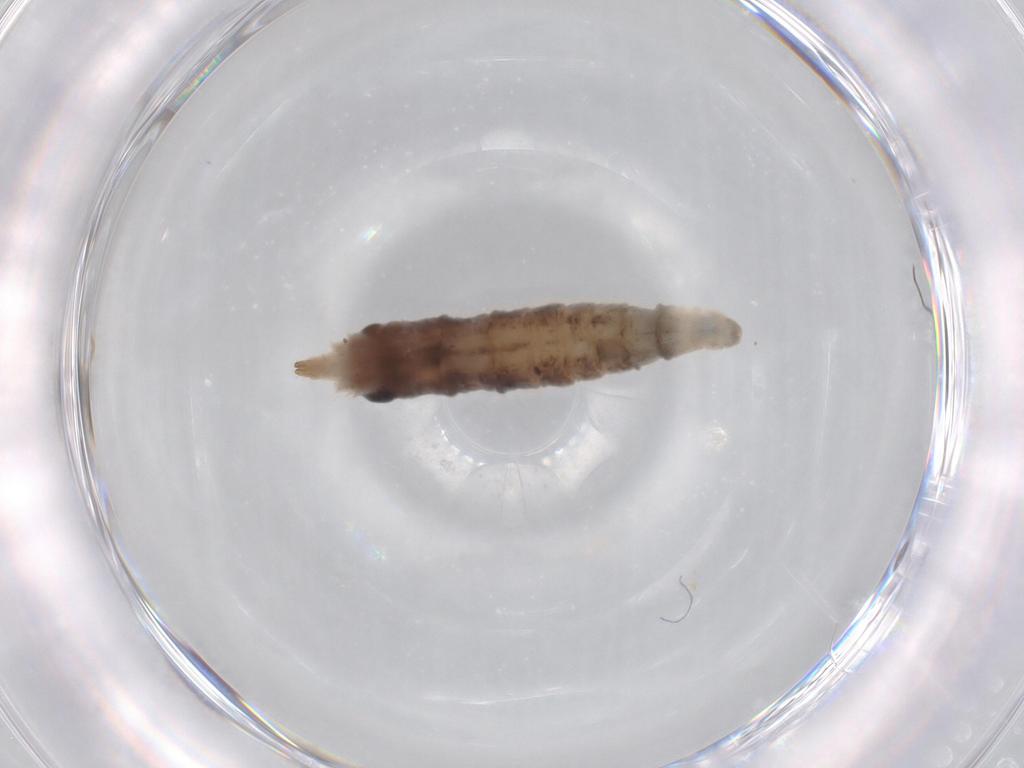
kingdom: Animalia
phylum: Arthropoda
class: Insecta
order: Diptera
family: Drosophilidae
